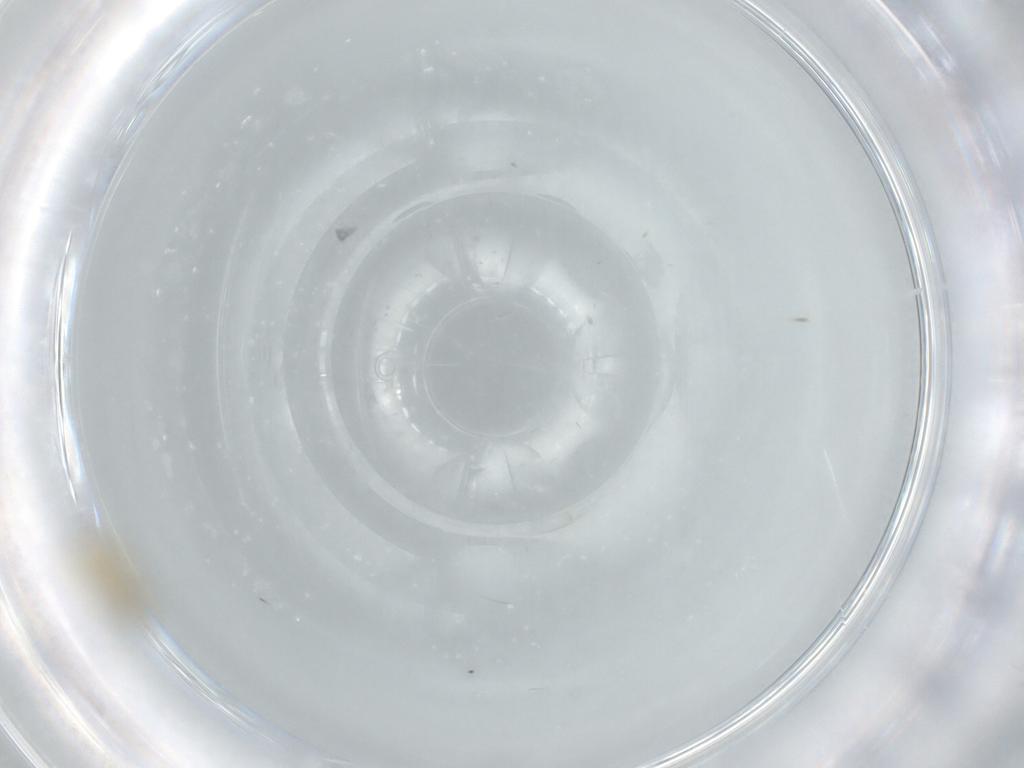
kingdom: Animalia
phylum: Arthropoda
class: Insecta
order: Diptera
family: Chironomidae
